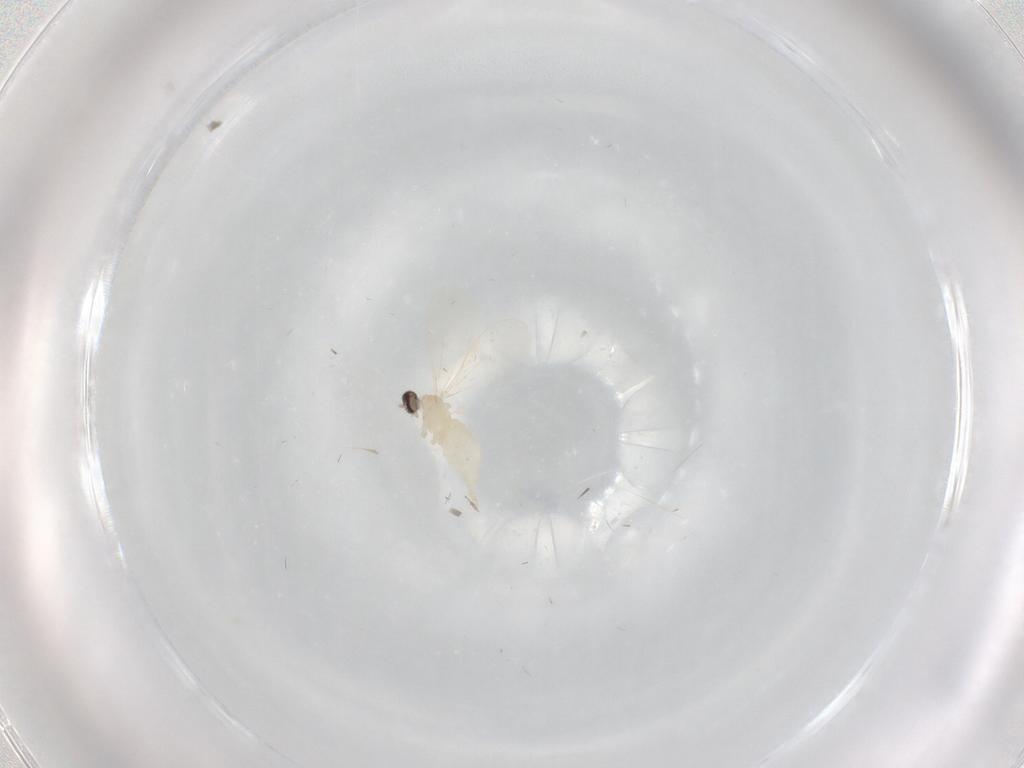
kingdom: Animalia
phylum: Arthropoda
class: Insecta
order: Diptera
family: Cecidomyiidae
